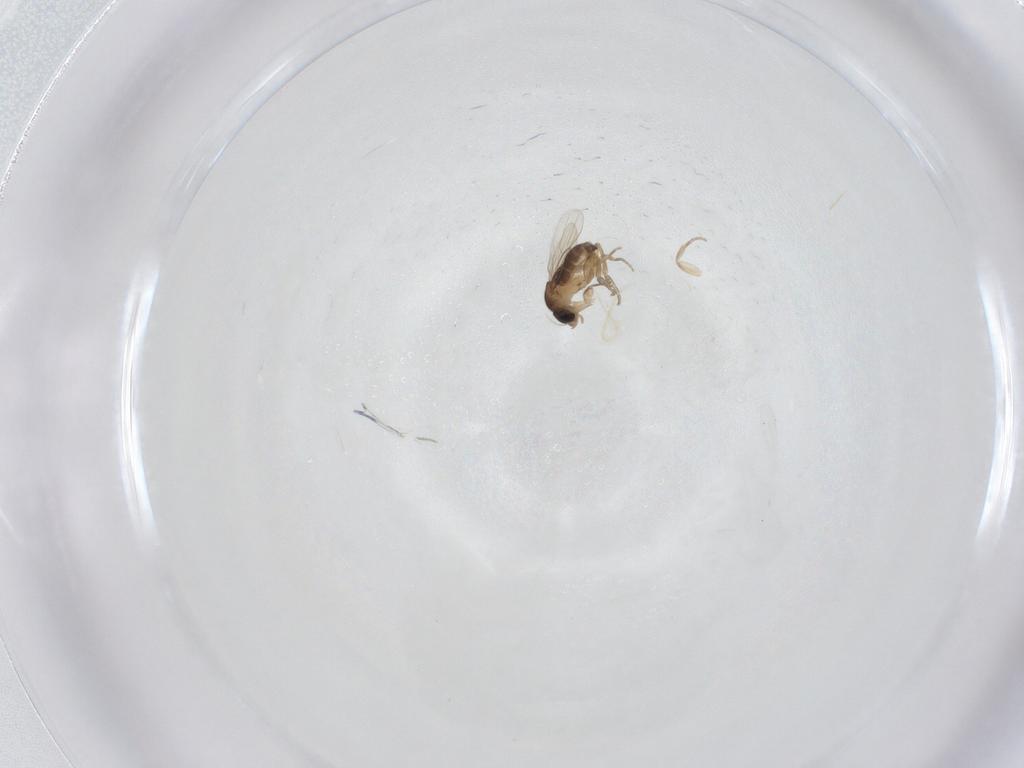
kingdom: Animalia
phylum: Arthropoda
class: Insecta
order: Diptera
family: Phoridae
